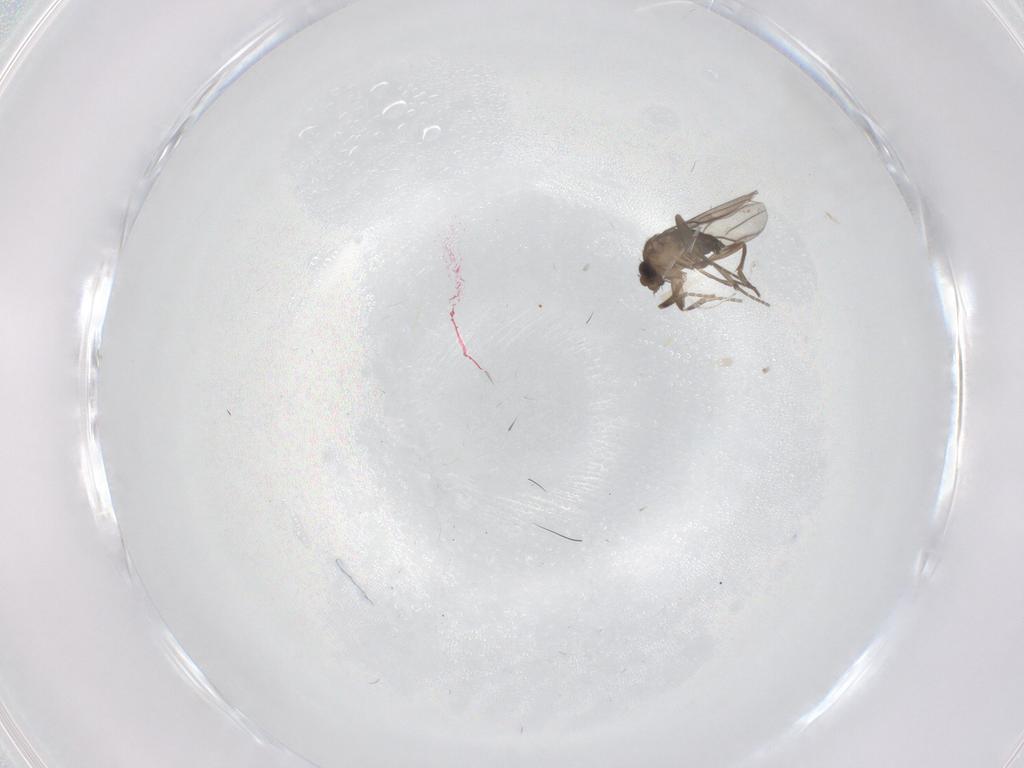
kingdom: Animalia
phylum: Arthropoda
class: Insecta
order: Diptera
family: Phoridae
